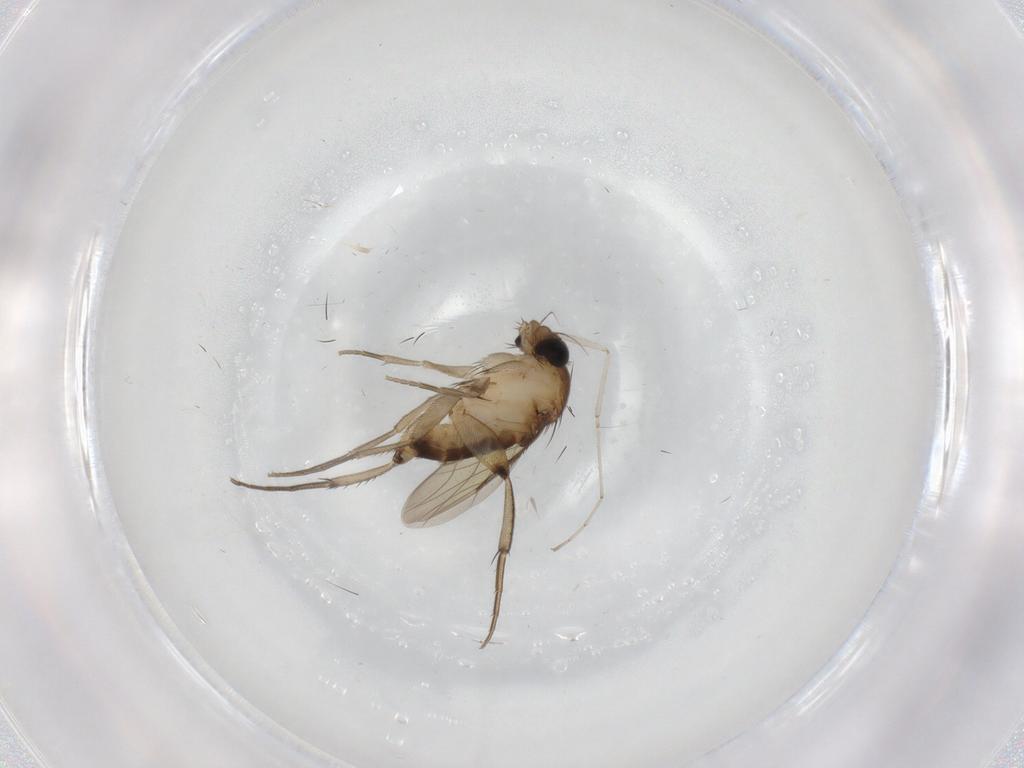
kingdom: Animalia
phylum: Arthropoda
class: Insecta
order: Diptera
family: Phoridae
